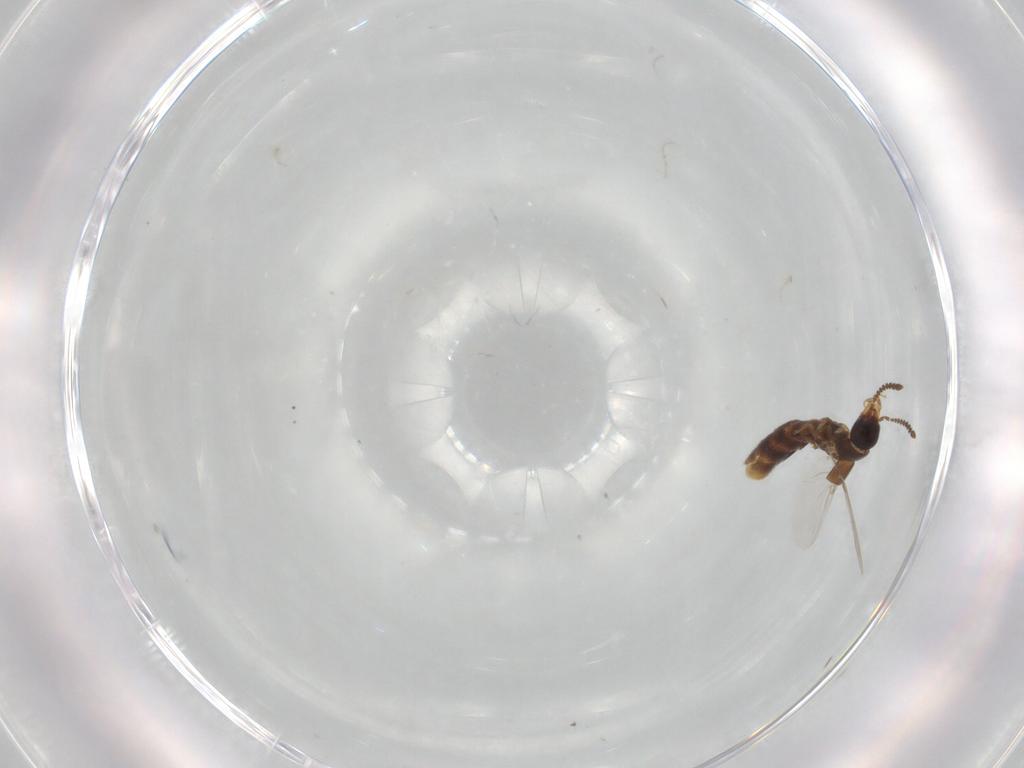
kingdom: Animalia
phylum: Arthropoda
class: Insecta
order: Coleoptera
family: Staphylinidae
